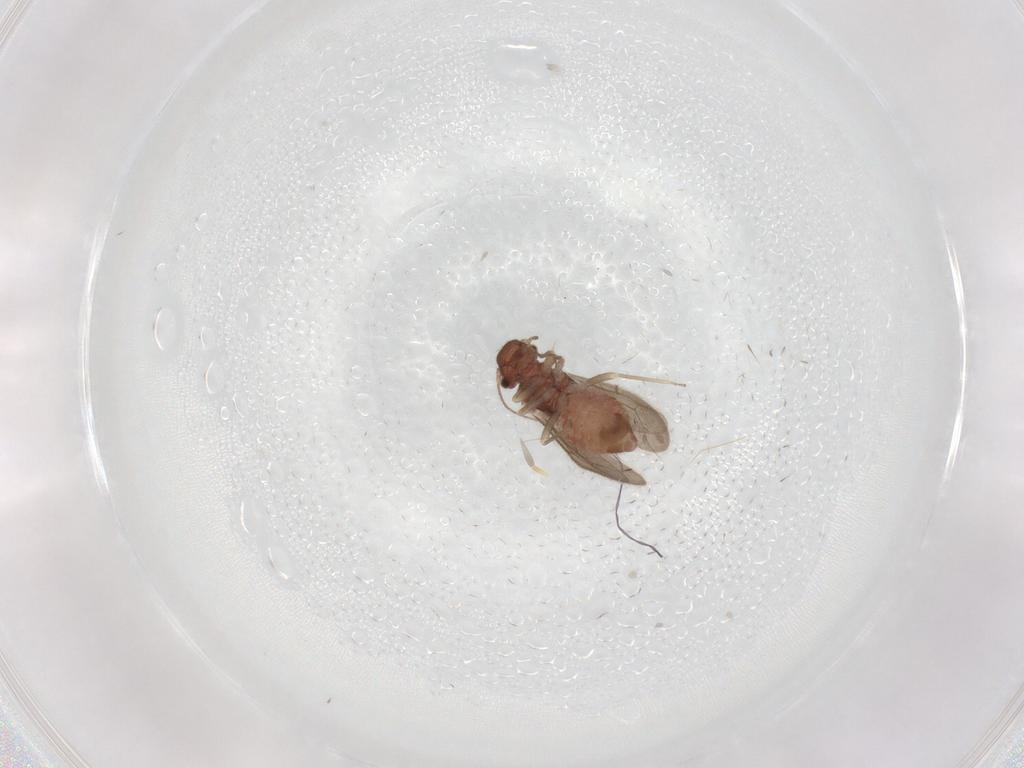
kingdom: Animalia
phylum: Arthropoda
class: Insecta
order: Psocodea
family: Archipsocidae
